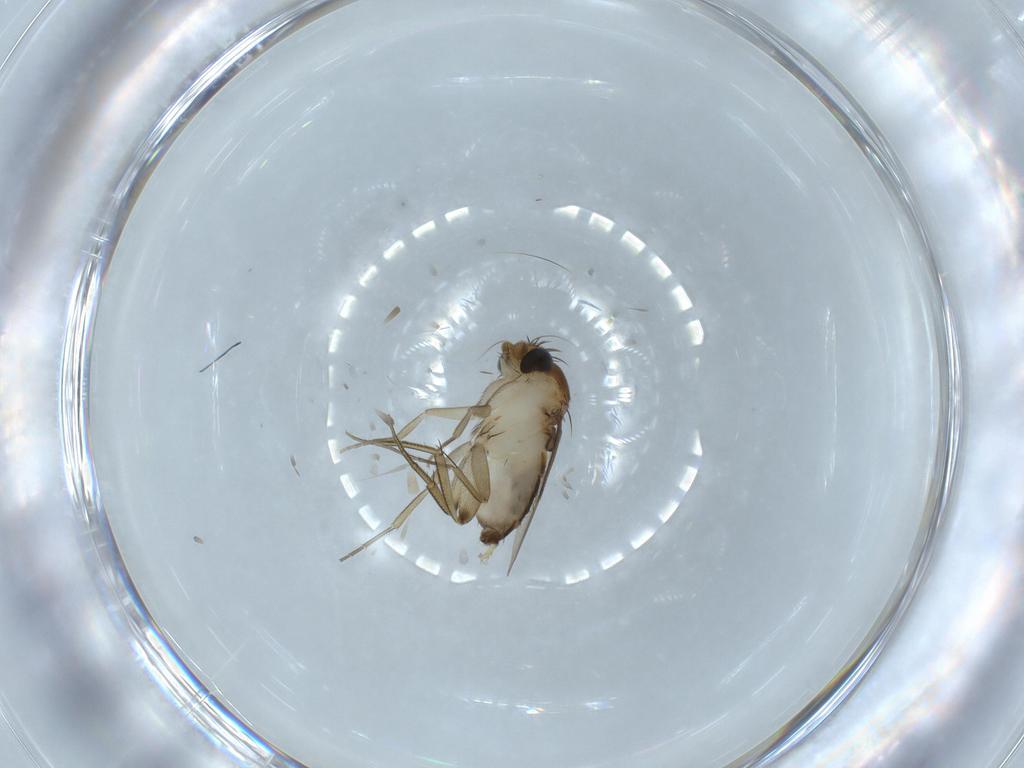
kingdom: Animalia
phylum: Arthropoda
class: Insecta
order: Diptera
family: Phoridae
